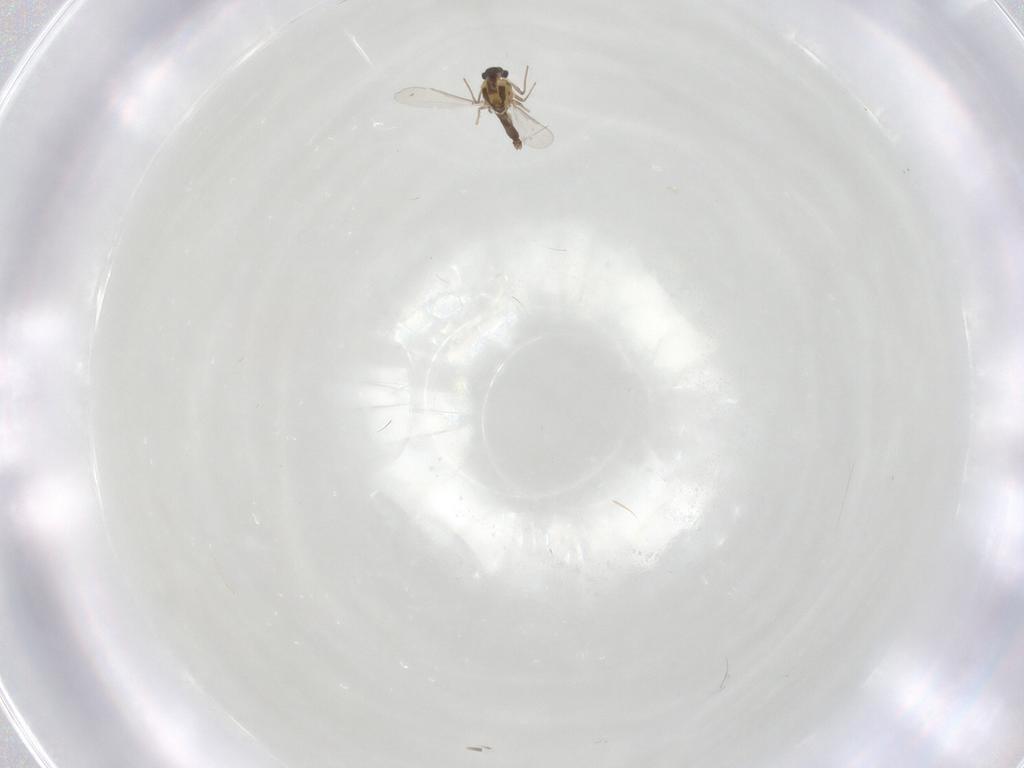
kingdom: Animalia
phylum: Arthropoda
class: Insecta
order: Diptera
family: Chironomidae
